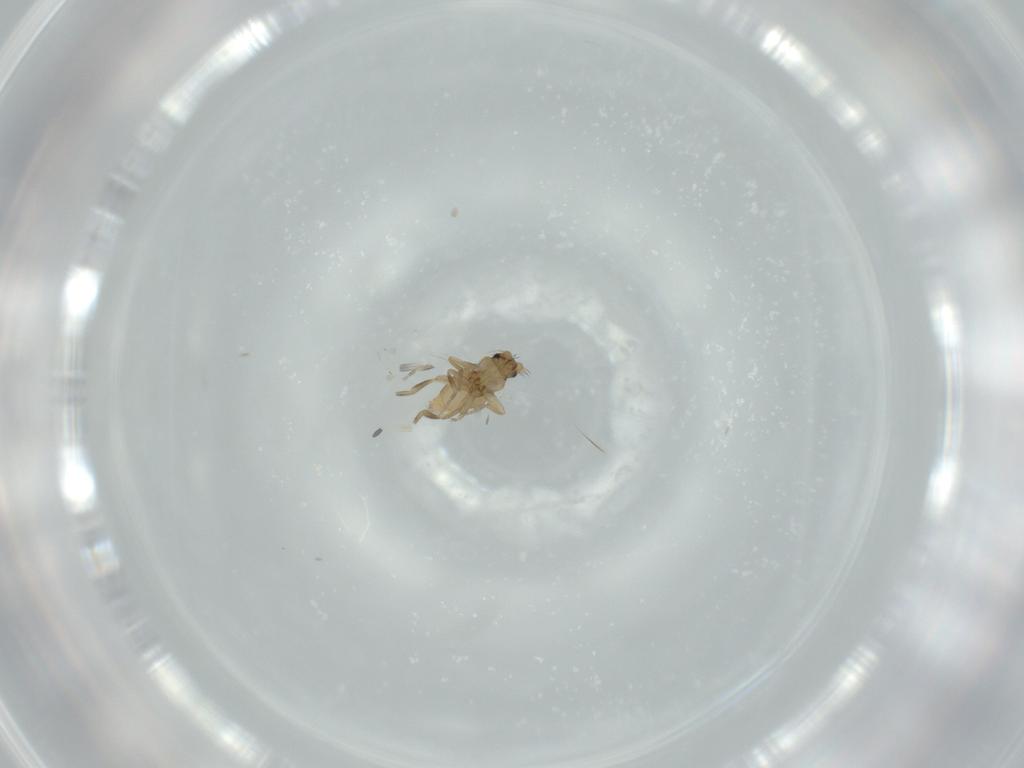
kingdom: Animalia
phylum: Arthropoda
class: Insecta
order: Diptera
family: Phoridae
